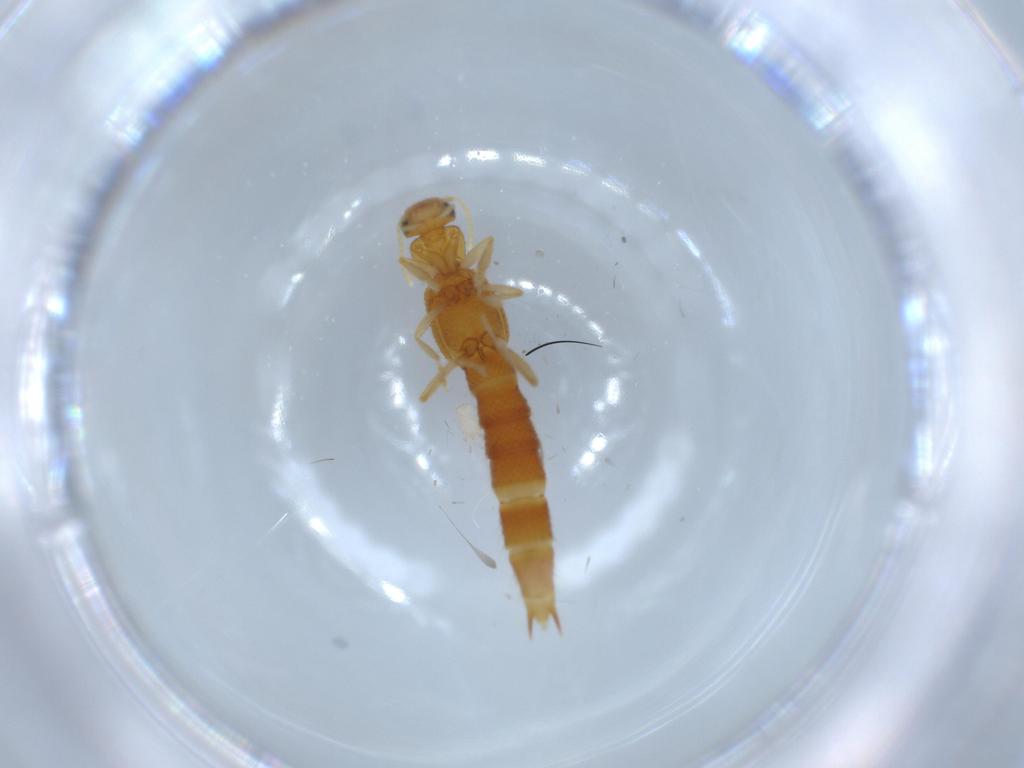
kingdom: Animalia
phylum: Arthropoda
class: Insecta
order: Coleoptera
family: Staphylinidae
